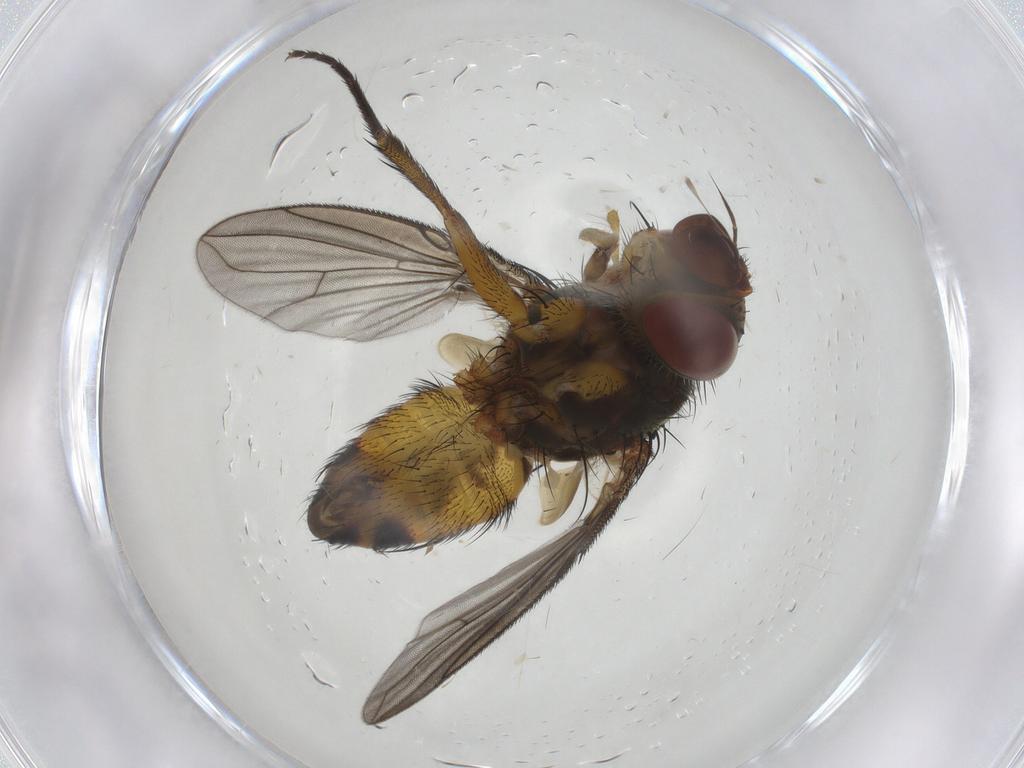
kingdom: Animalia
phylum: Arthropoda
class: Insecta
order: Diptera
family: Tachinidae
